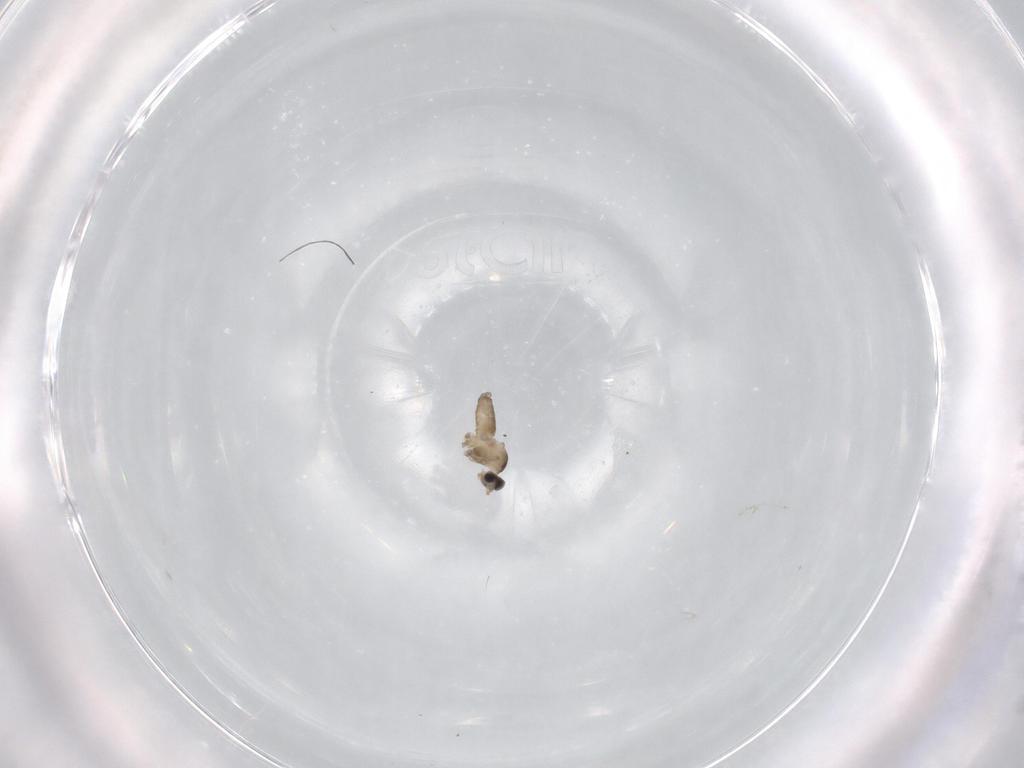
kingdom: Animalia
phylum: Arthropoda
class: Insecta
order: Diptera
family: Cecidomyiidae
